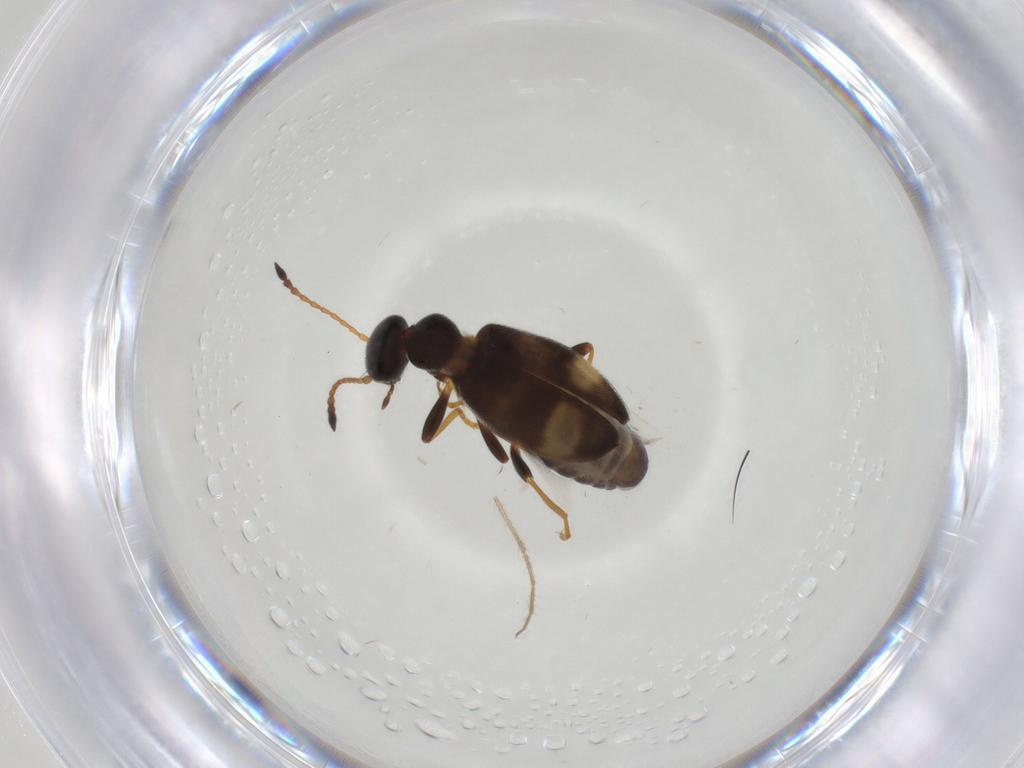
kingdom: Animalia
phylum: Arthropoda
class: Insecta
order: Coleoptera
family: Anthicidae
